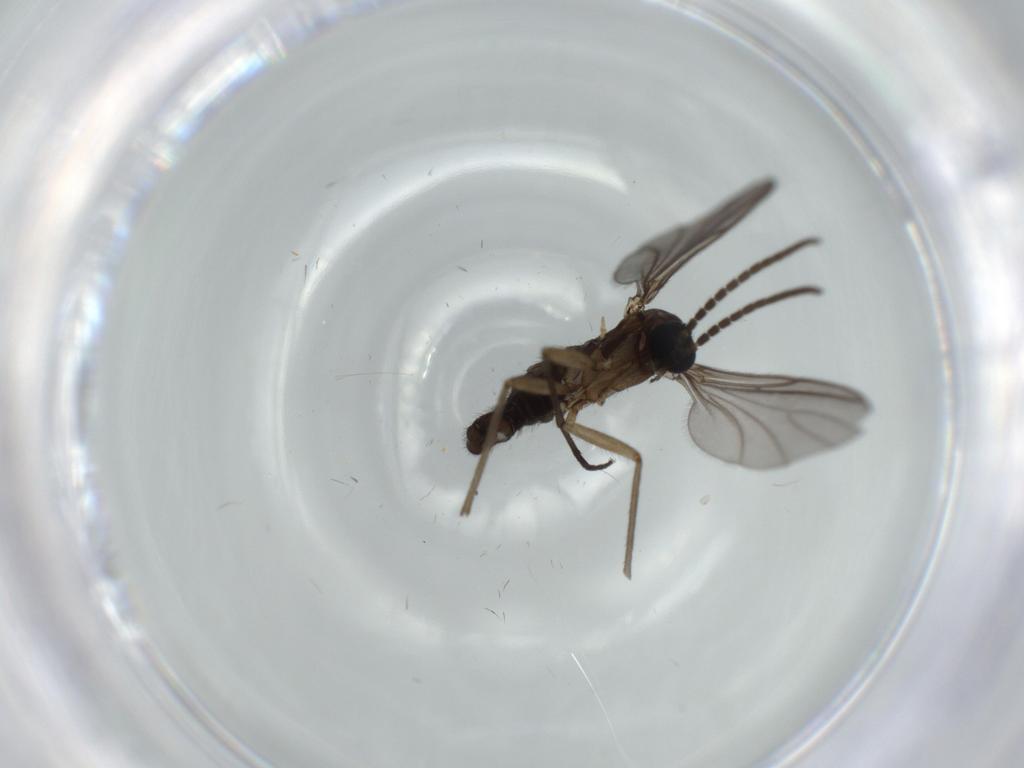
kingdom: Animalia
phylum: Arthropoda
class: Insecta
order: Diptera
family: Sciaridae
